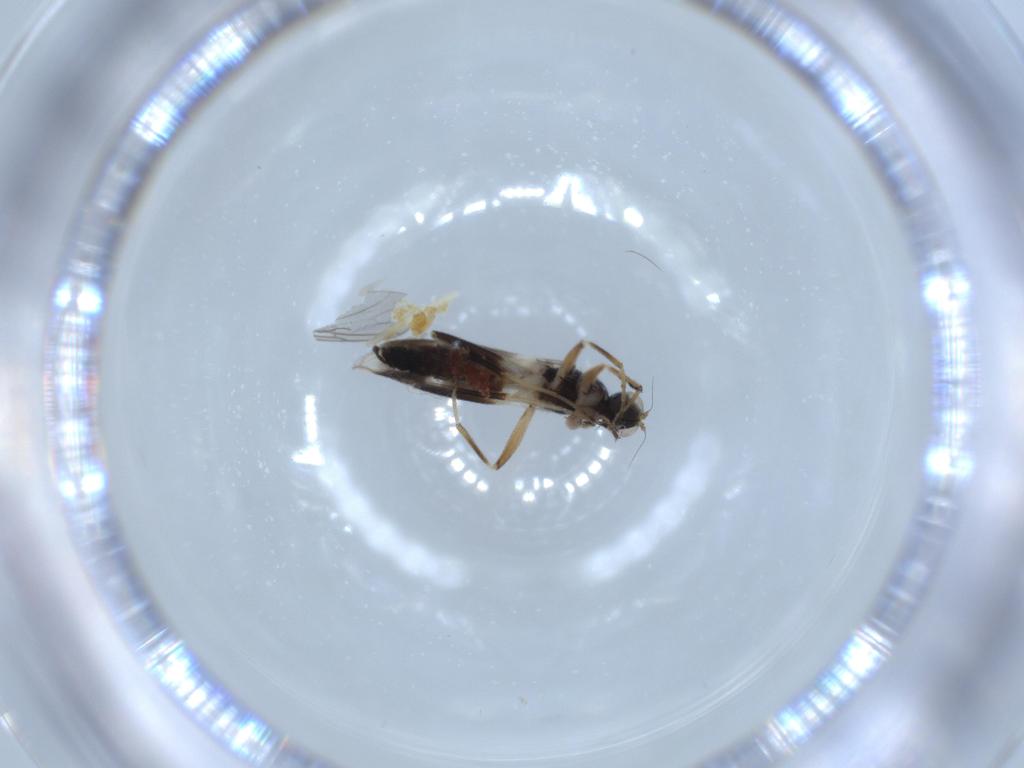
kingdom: Animalia
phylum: Arthropoda
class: Insecta
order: Diptera
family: Hybotidae
